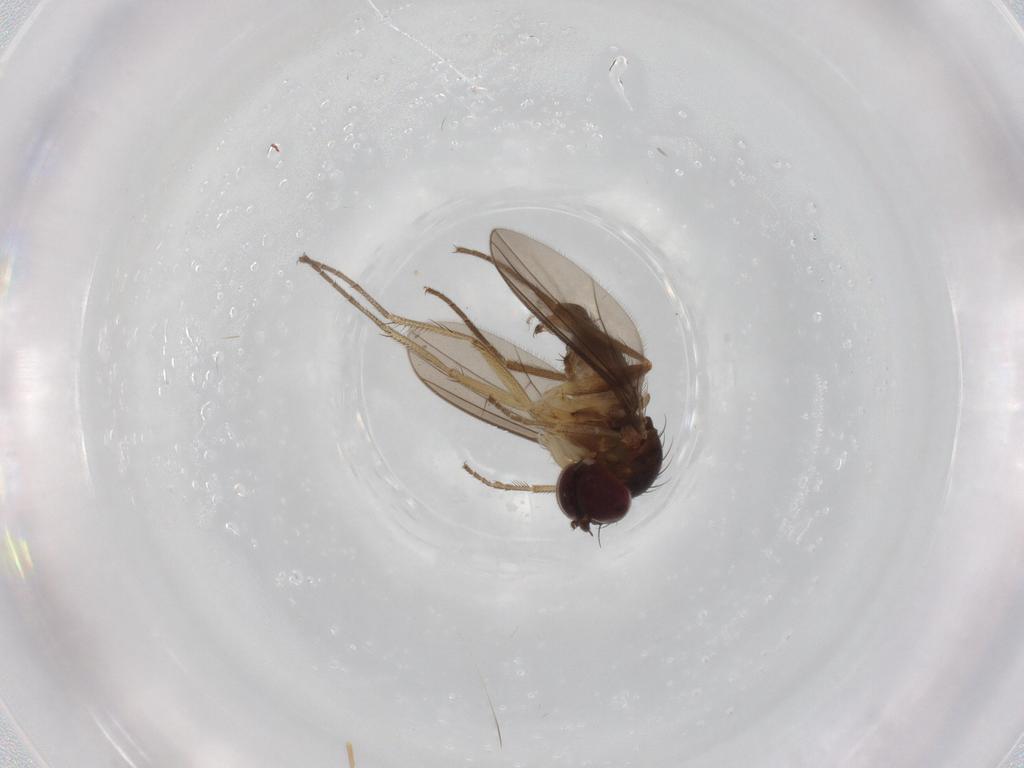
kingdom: Animalia
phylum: Arthropoda
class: Insecta
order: Diptera
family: Dolichopodidae
